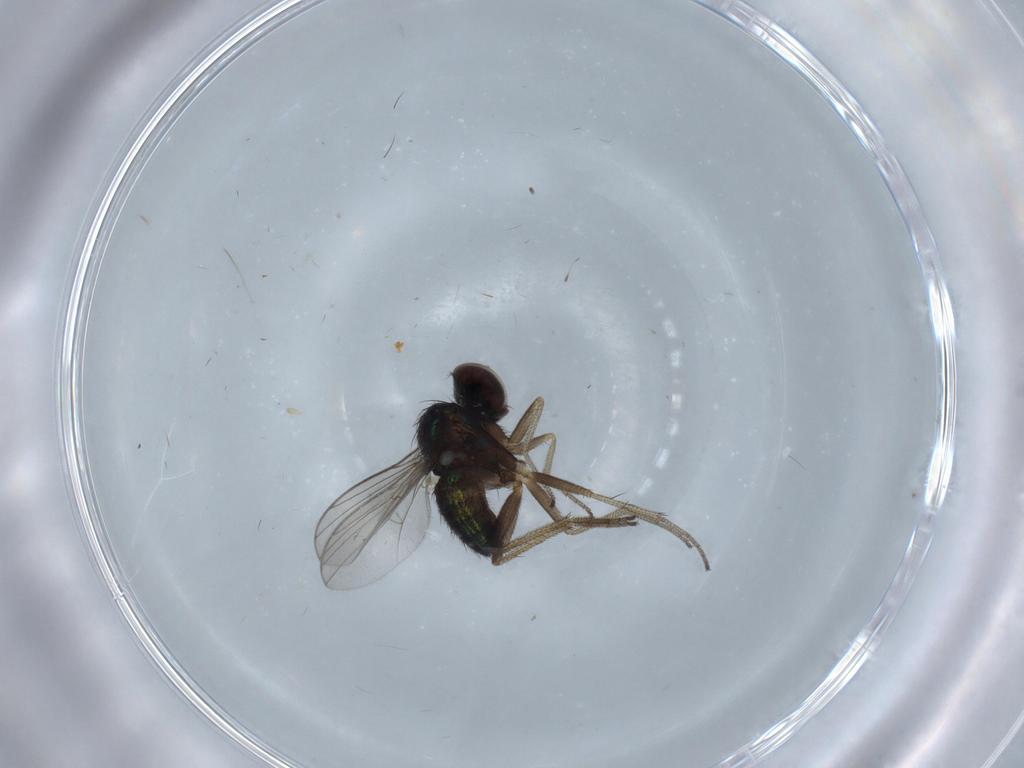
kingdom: Animalia
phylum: Arthropoda
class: Insecta
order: Diptera
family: Dolichopodidae
